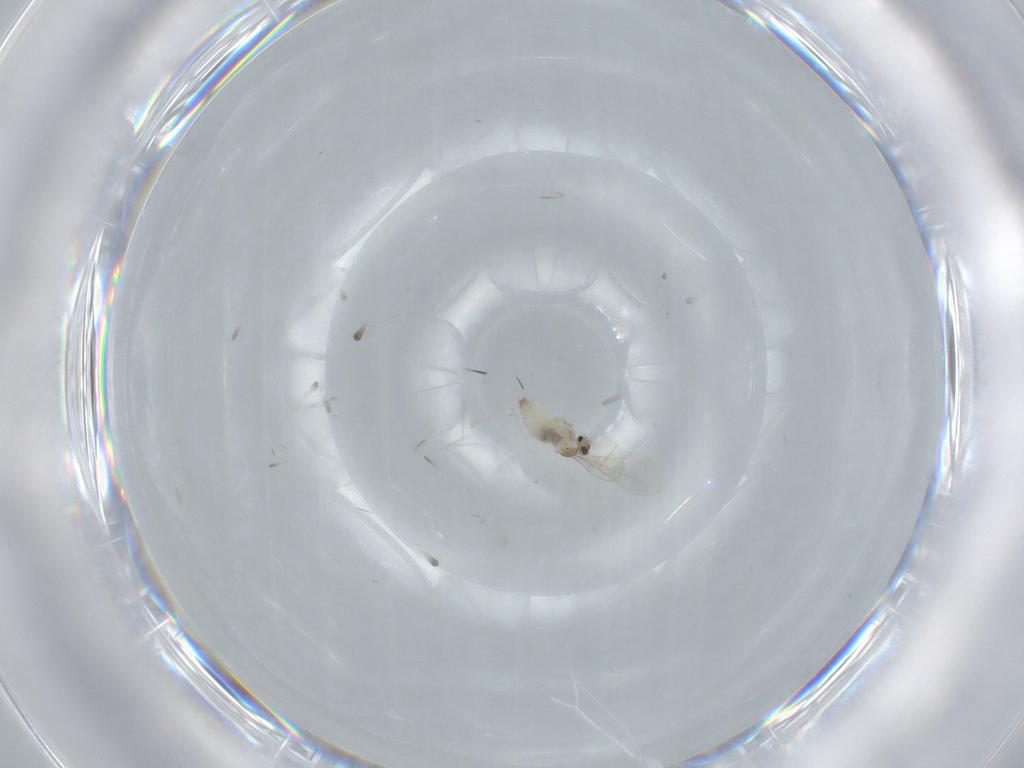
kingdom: Animalia
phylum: Arthropoda
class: Insecta
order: Diptera
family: Cecidomyiidae
